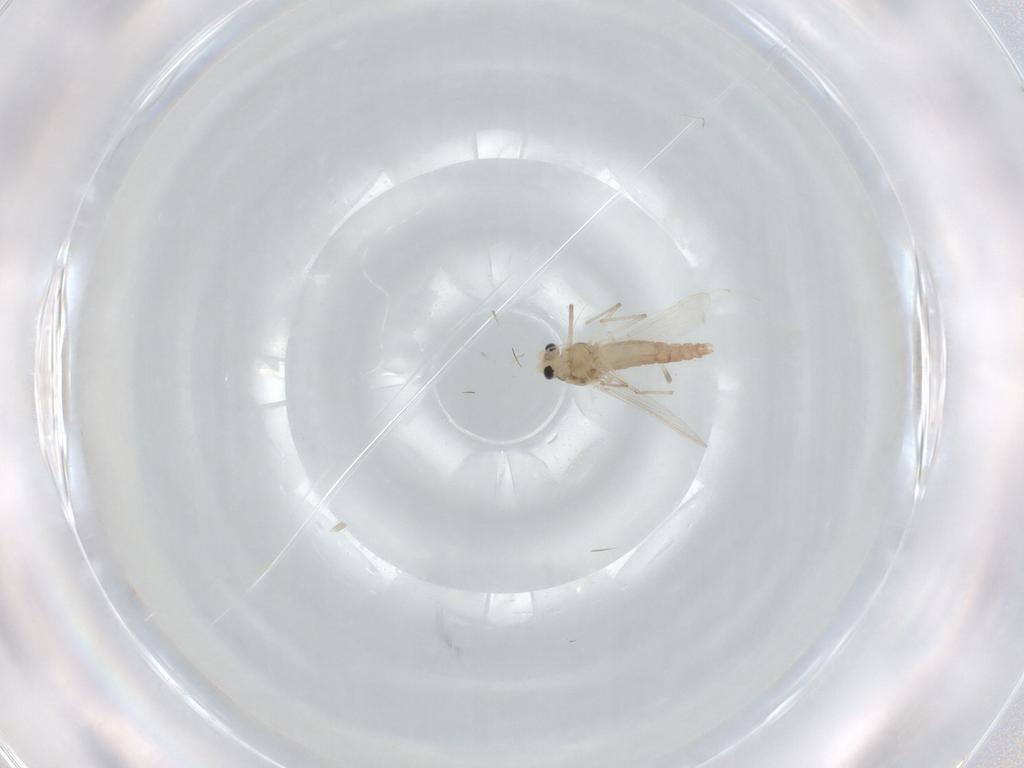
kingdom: Animalia
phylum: Arthropoda
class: Insecta
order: Diptera
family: Chironomidae
